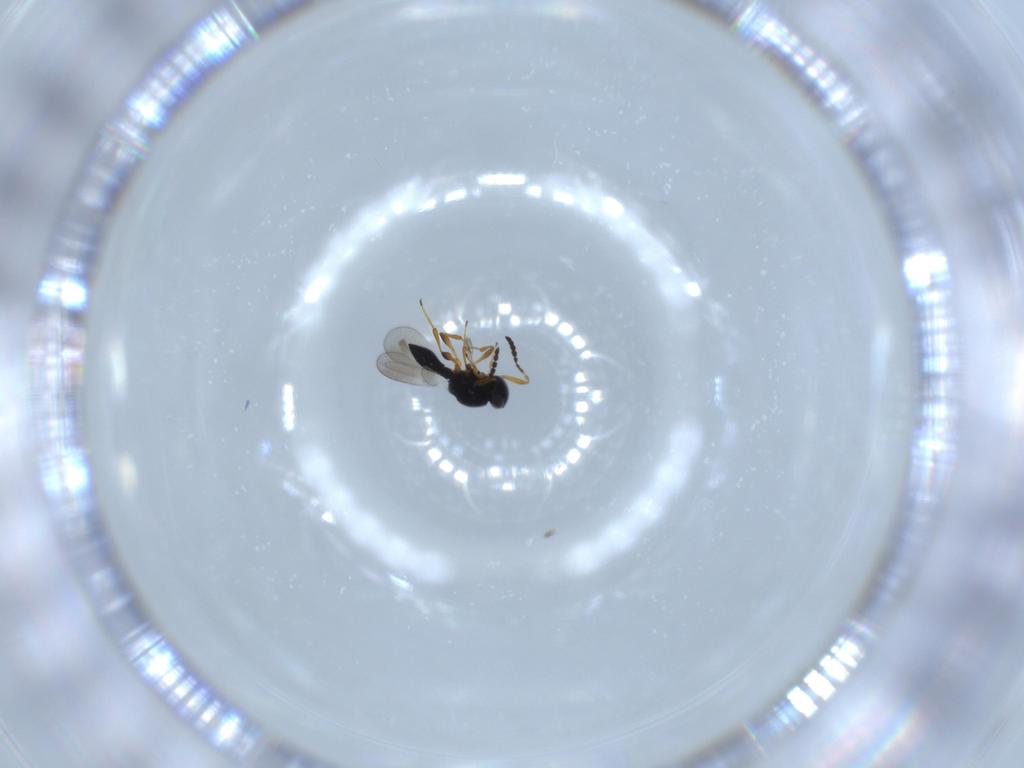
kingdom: Animalia
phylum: Arthropoda
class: Insecta
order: Hymenoptera
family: Platygastridae
